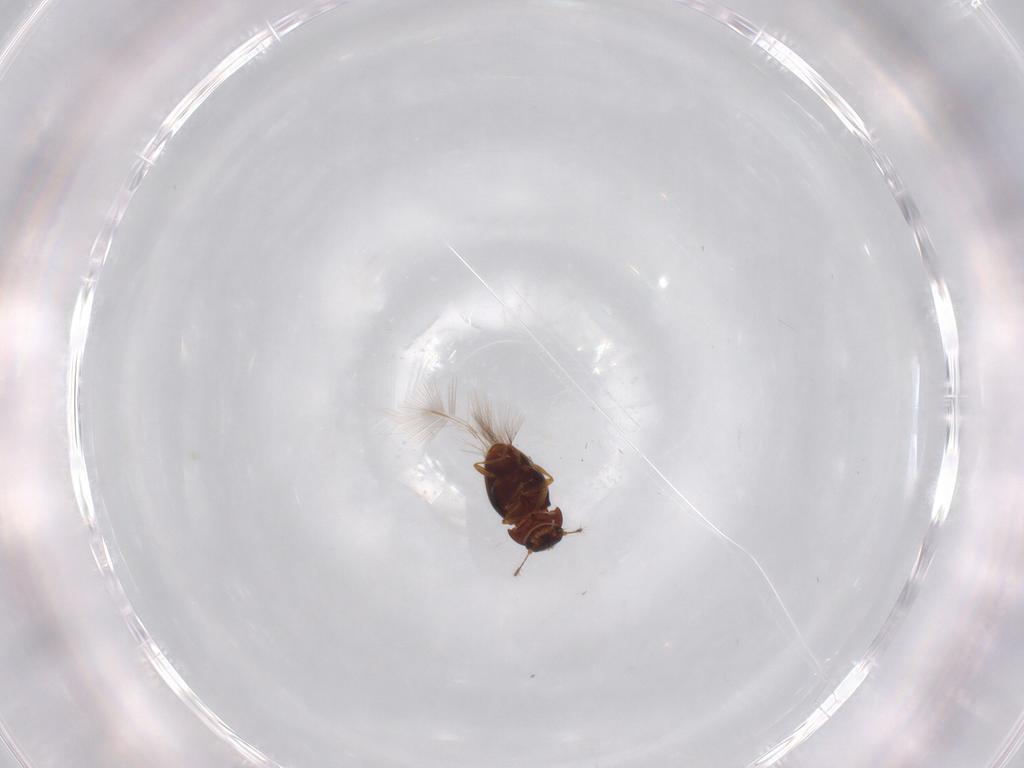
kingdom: Animalia
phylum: Arthropoda
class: Insecta
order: Coleoptera
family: Ptiliidae
